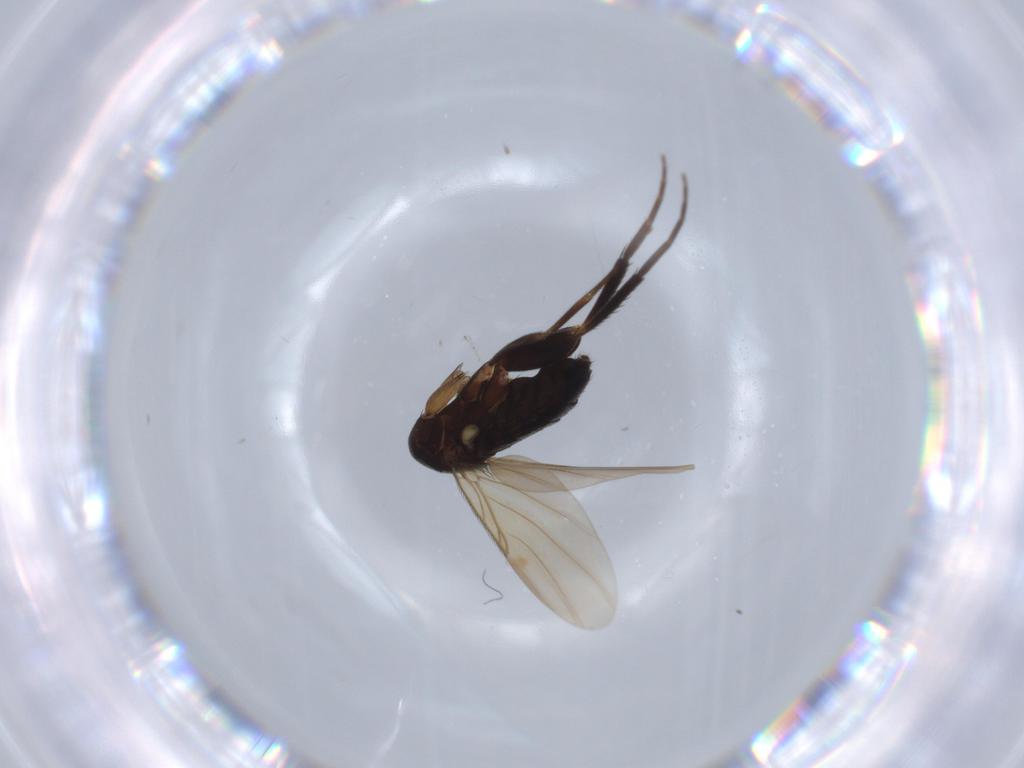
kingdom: Animalia
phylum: Arthropoda
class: Insecta
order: Diptera
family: Phoridae
